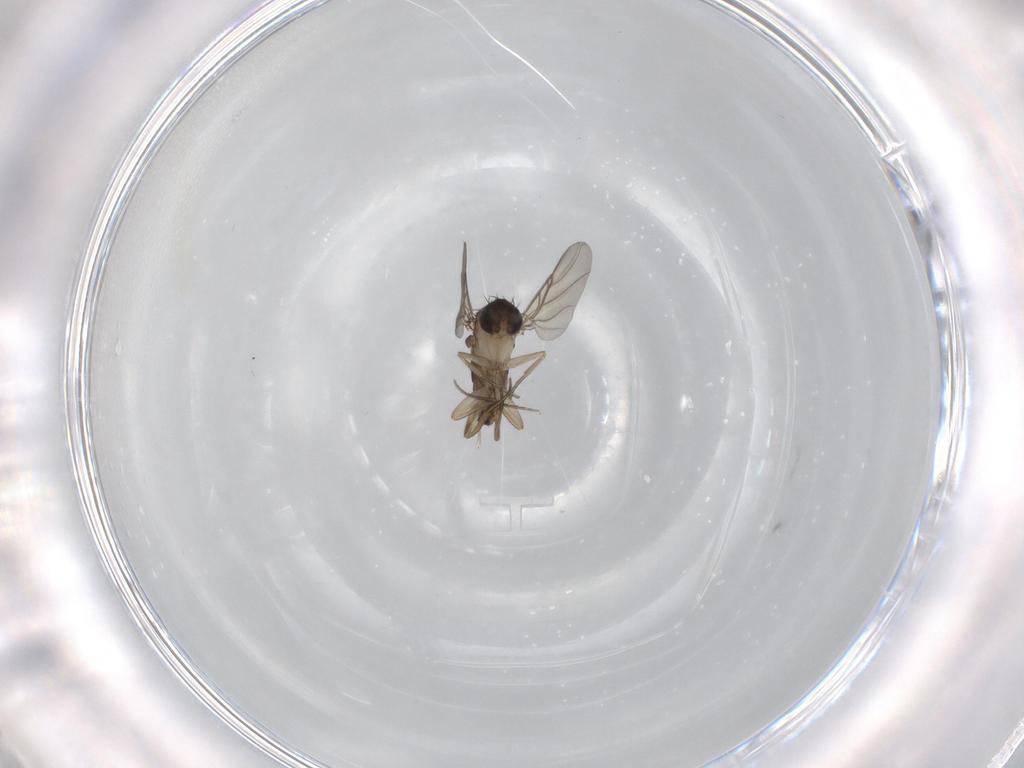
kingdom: Animalia
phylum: Arthropoda
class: Insecta
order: Diptera
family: Phoridae
